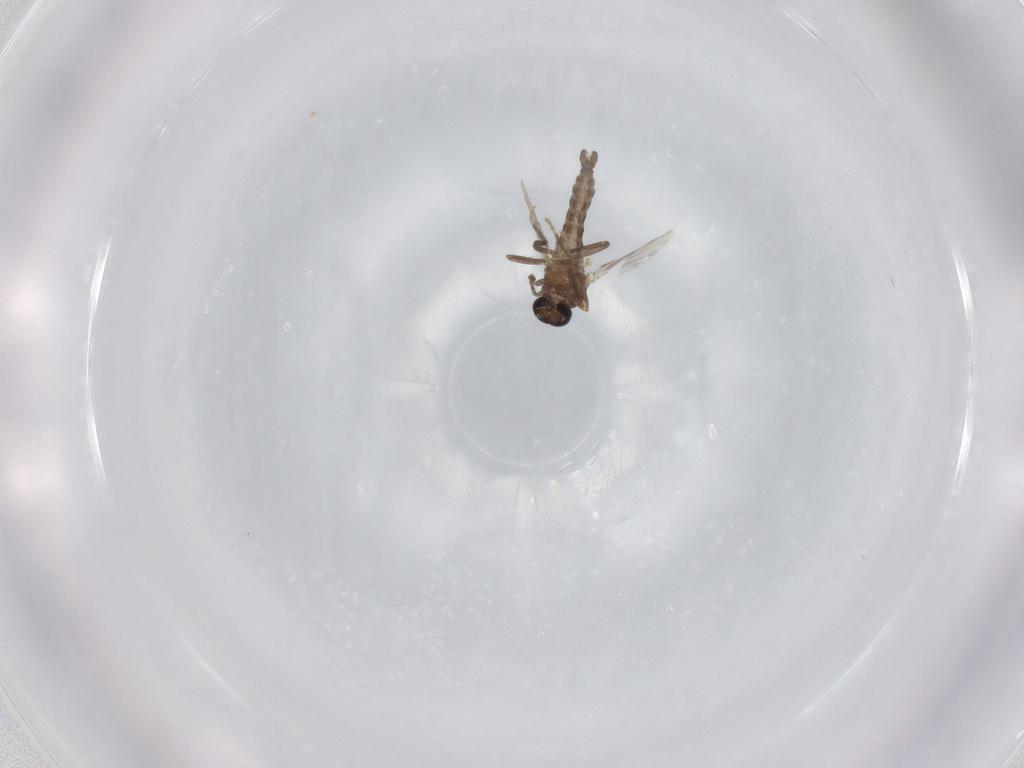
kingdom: Animalia
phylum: Arthropoda
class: Insecta
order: Diptera
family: Ceratopogonidae
